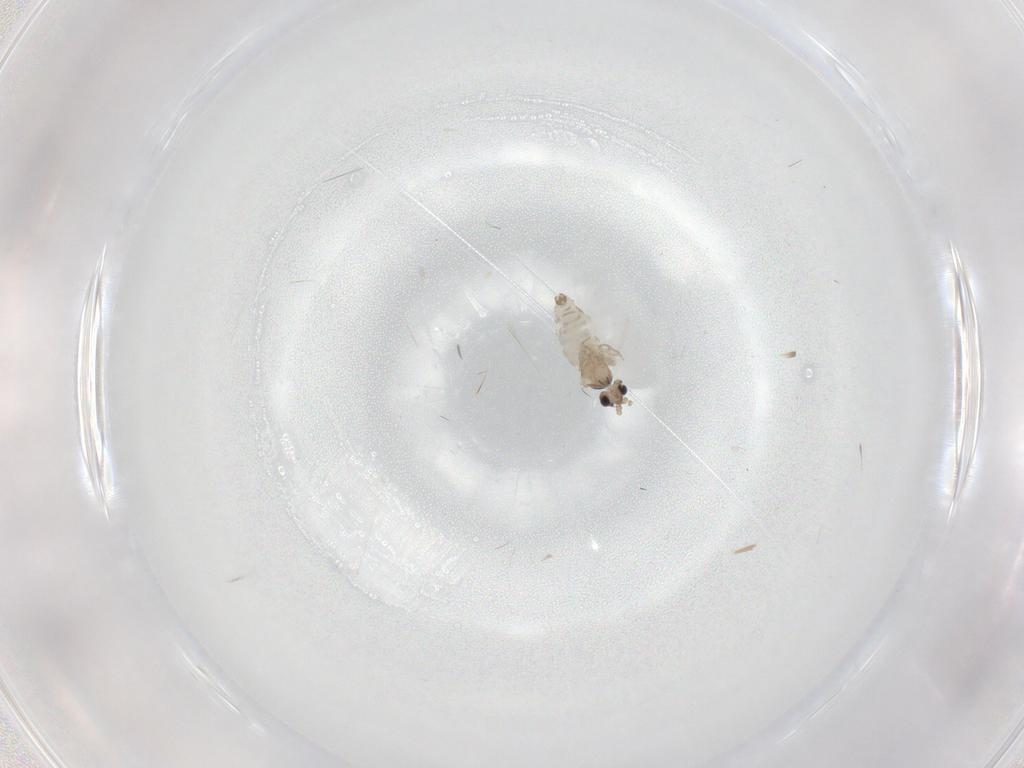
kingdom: Animalia
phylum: Arthropoda
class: Insecta
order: Diptera
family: Cecidomyiidae
